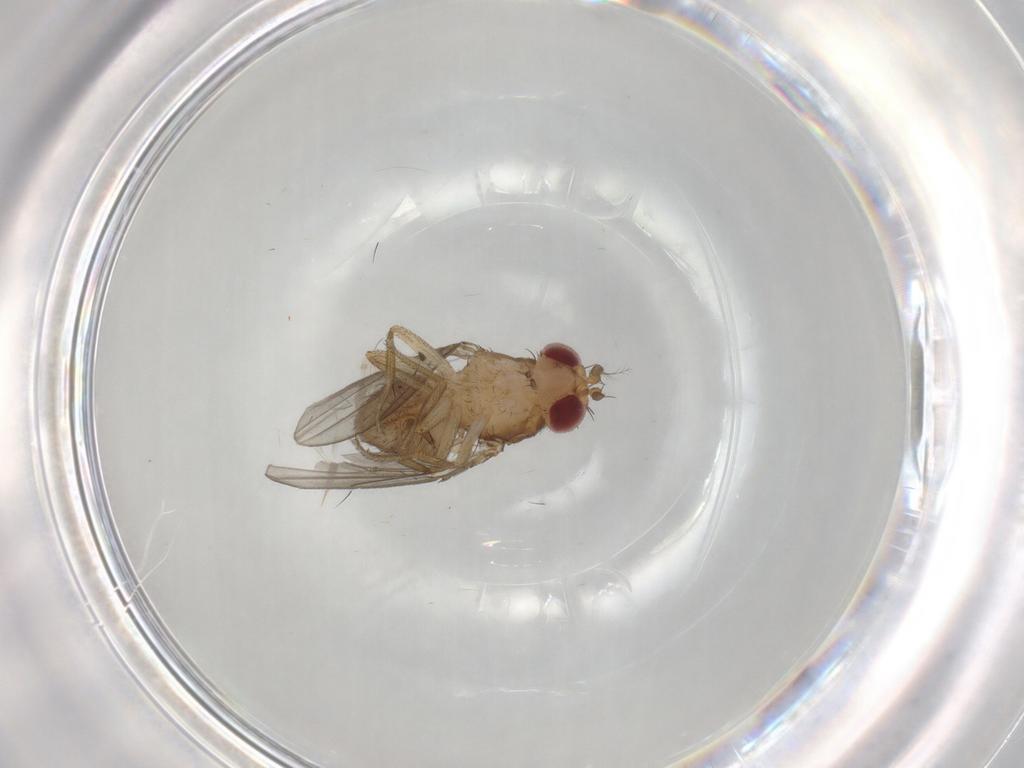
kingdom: Animalia
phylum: Arthropoda
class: Insecta
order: Diptera
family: Drosophilidae
